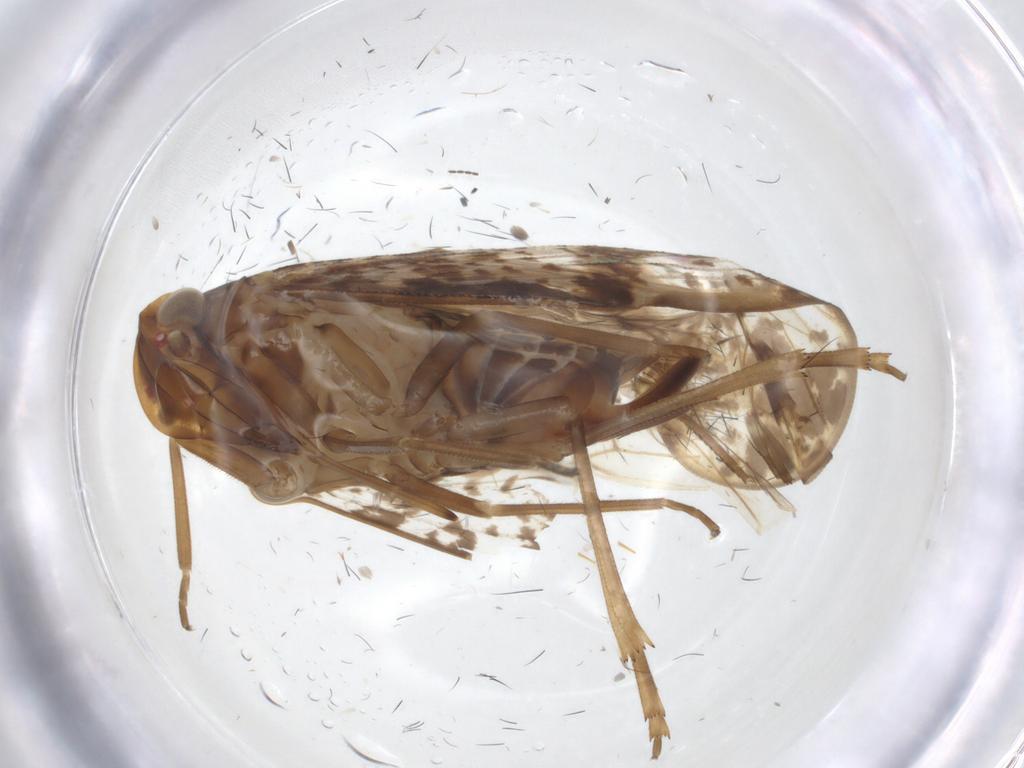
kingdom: Animalia
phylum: Arthropoda
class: Insecta
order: Hemiptera
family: Cixiidae
